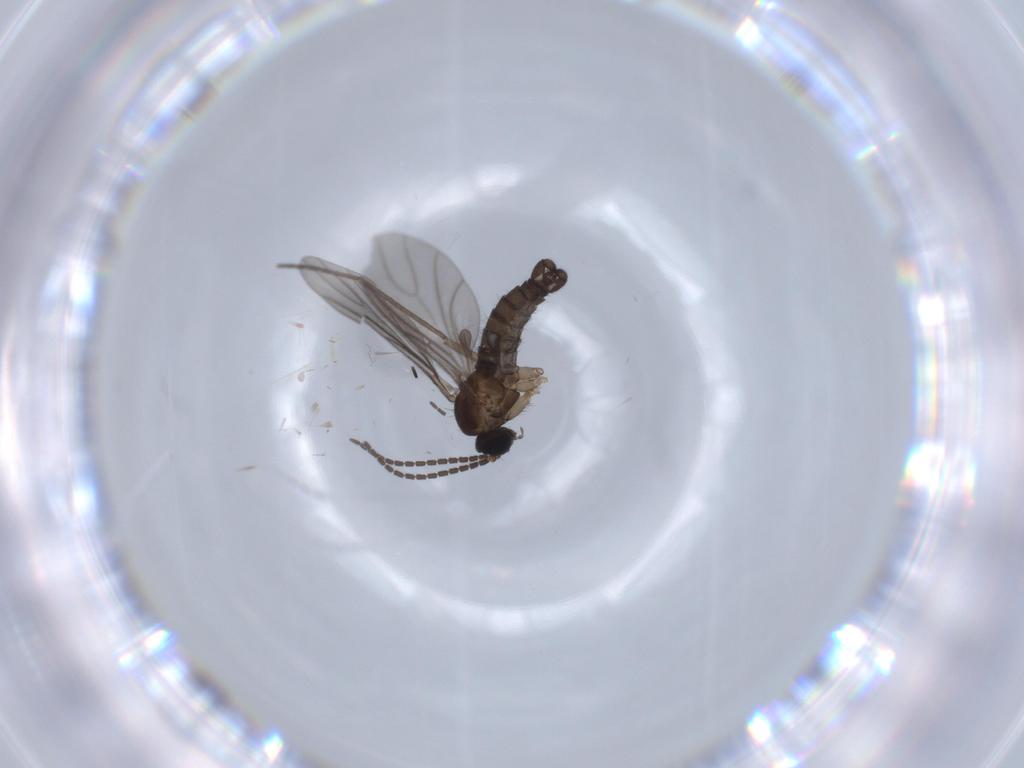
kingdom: Animalia
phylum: Arthropoda
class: Insecta
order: Diptera
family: Sciaridae
